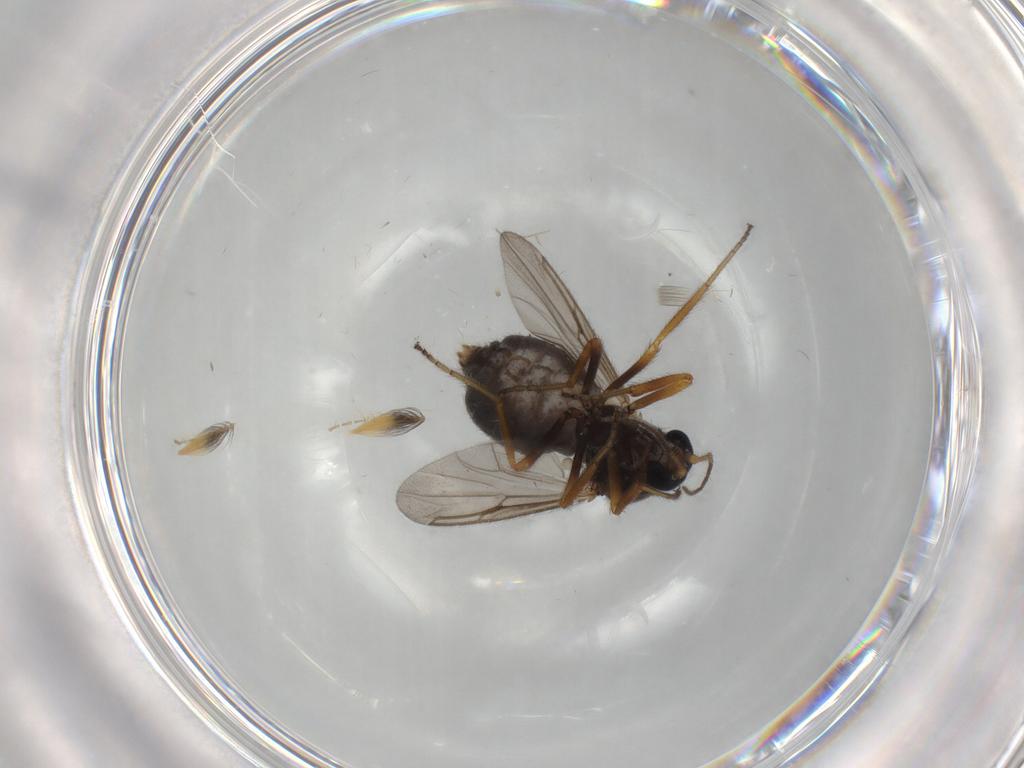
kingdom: Animalia
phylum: Arthropoda
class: Insecta
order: Diptera
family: Ceratopogonidae
